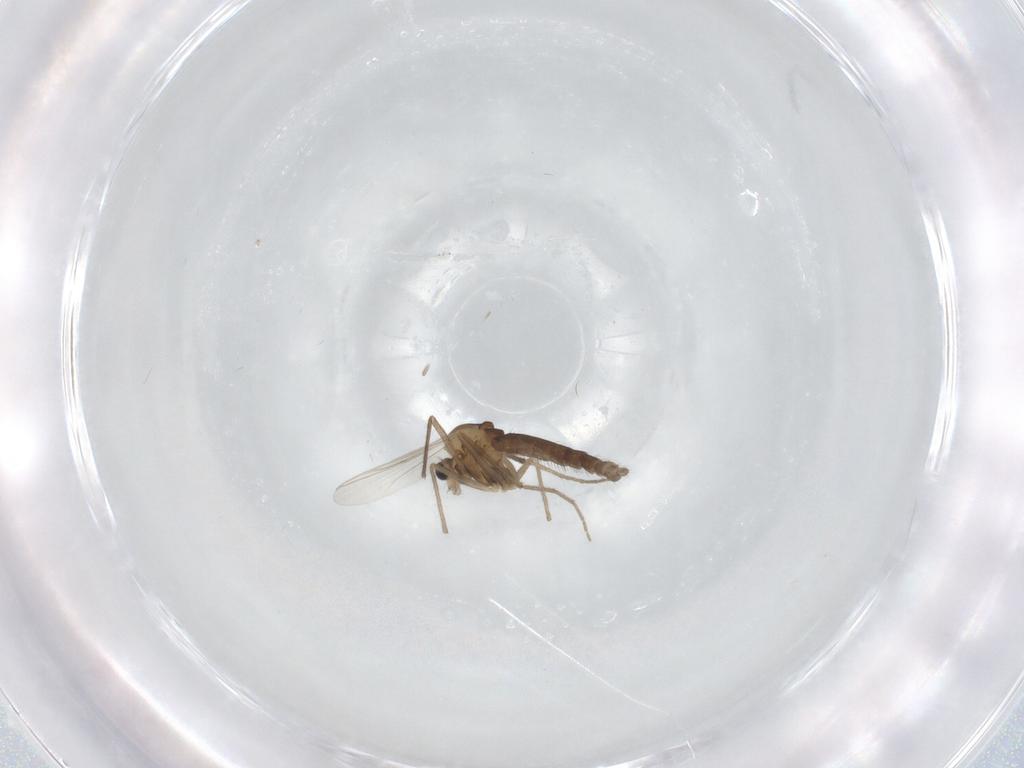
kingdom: Animalia
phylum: Arthropoda
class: Insecta
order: Diptera
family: Chironomidae
